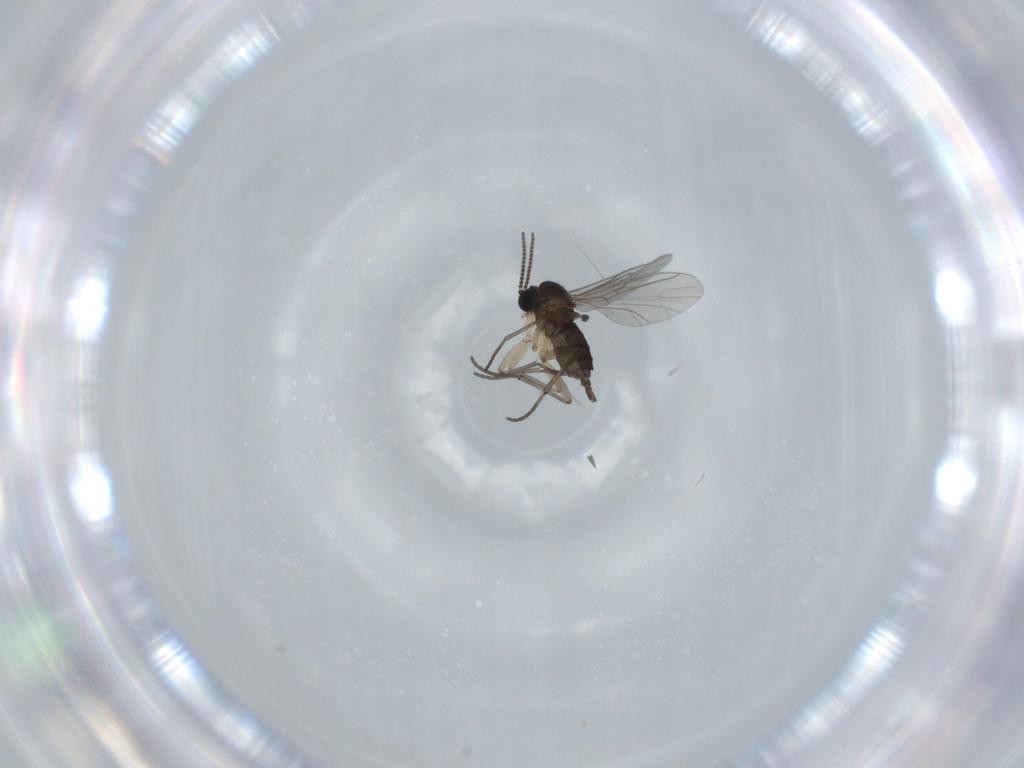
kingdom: Animalia
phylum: Arthropoda
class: Insecta
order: Diptera
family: Sciaridae
